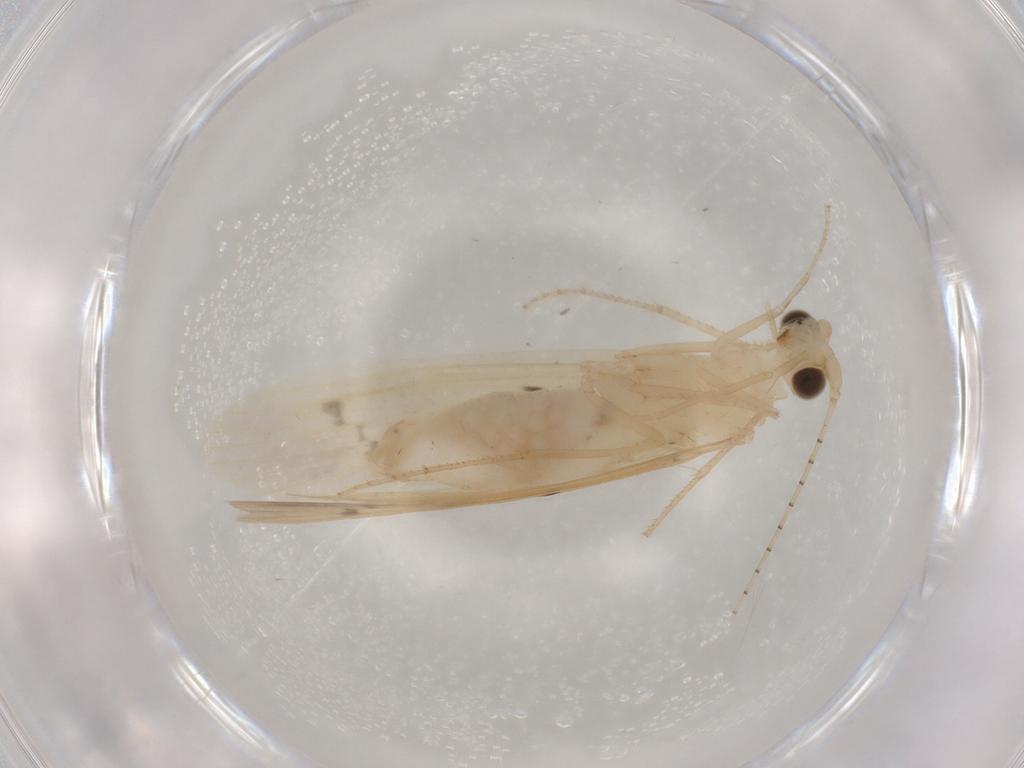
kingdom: Animalia
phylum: Arthropoda
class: Insecta
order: Trichoptera
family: Leptoceridae
